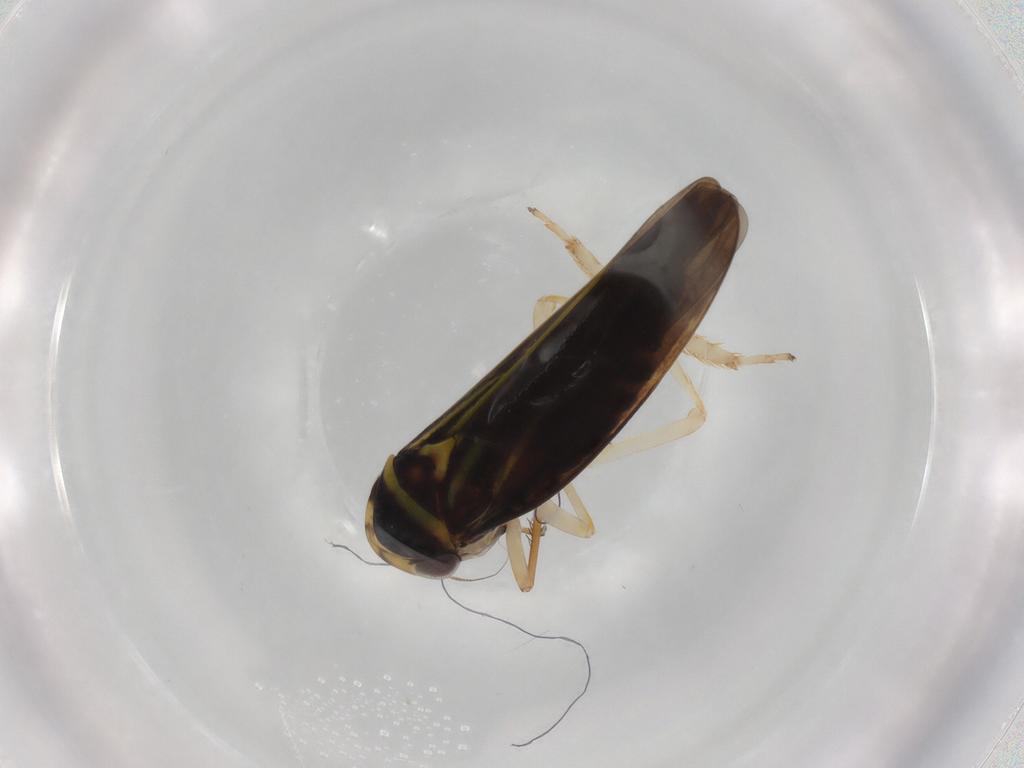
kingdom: Animalia
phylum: Arthropoda
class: Insecta
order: Hemiptera
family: Cicadellidae
